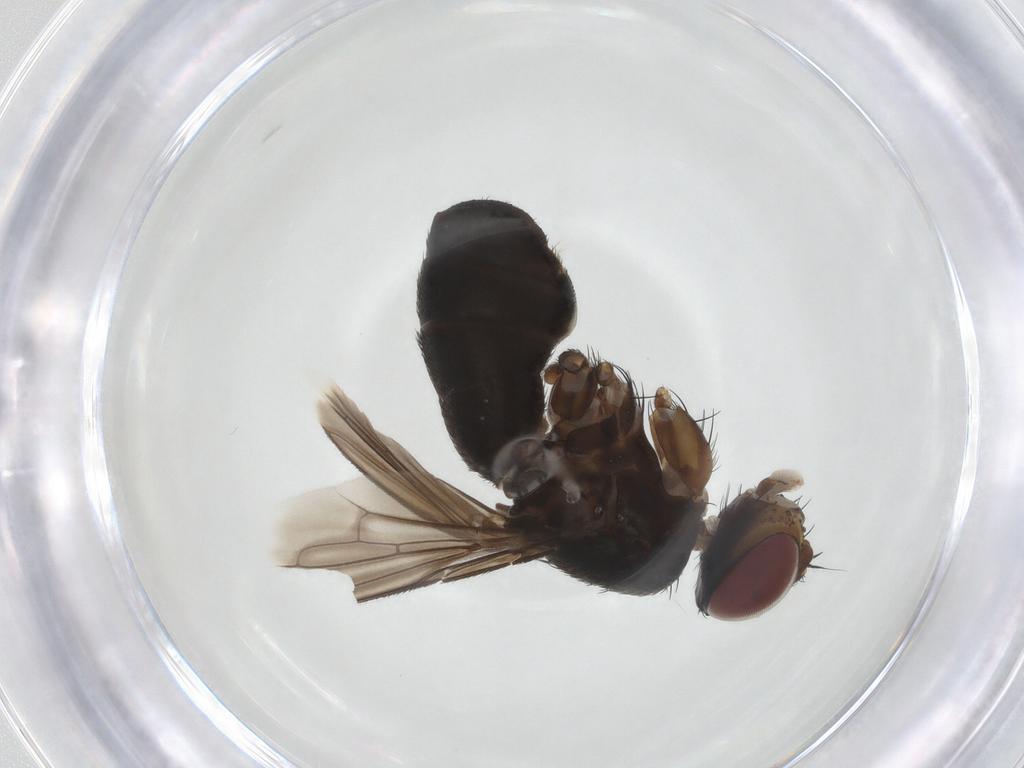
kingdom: Animalia
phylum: Arthropoda
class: Insecta
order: Diptera
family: Tachinidae
